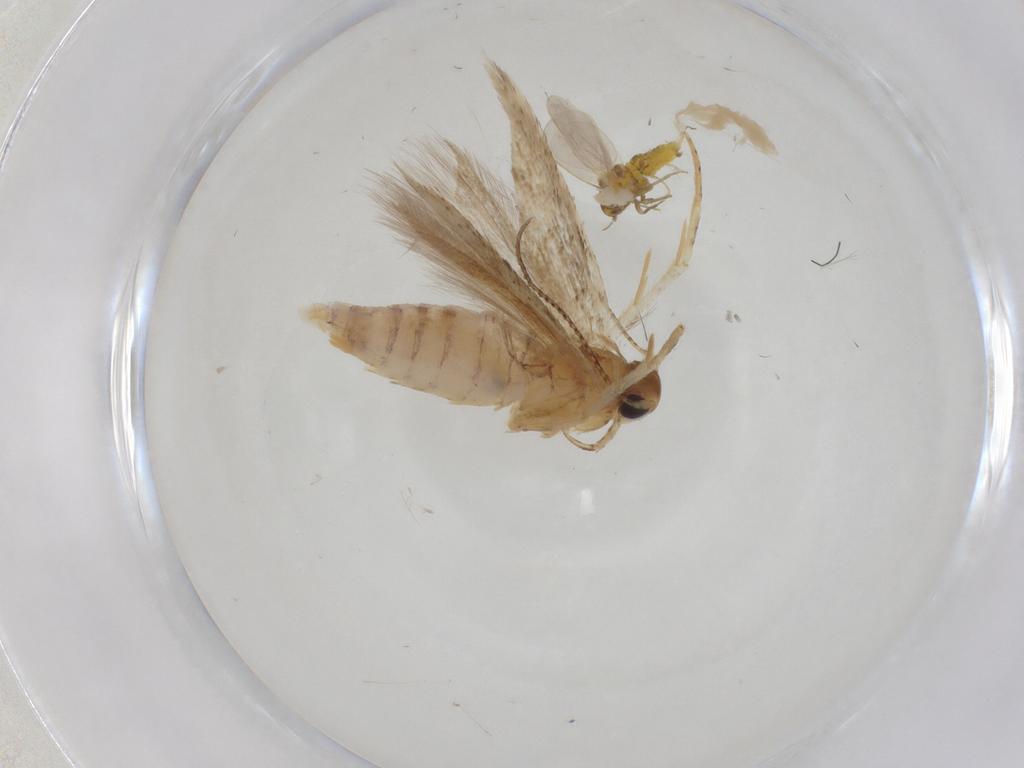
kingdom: Animalia
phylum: Arthropoda
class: Insecta
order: Lepidoptera
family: Gelechiidae
